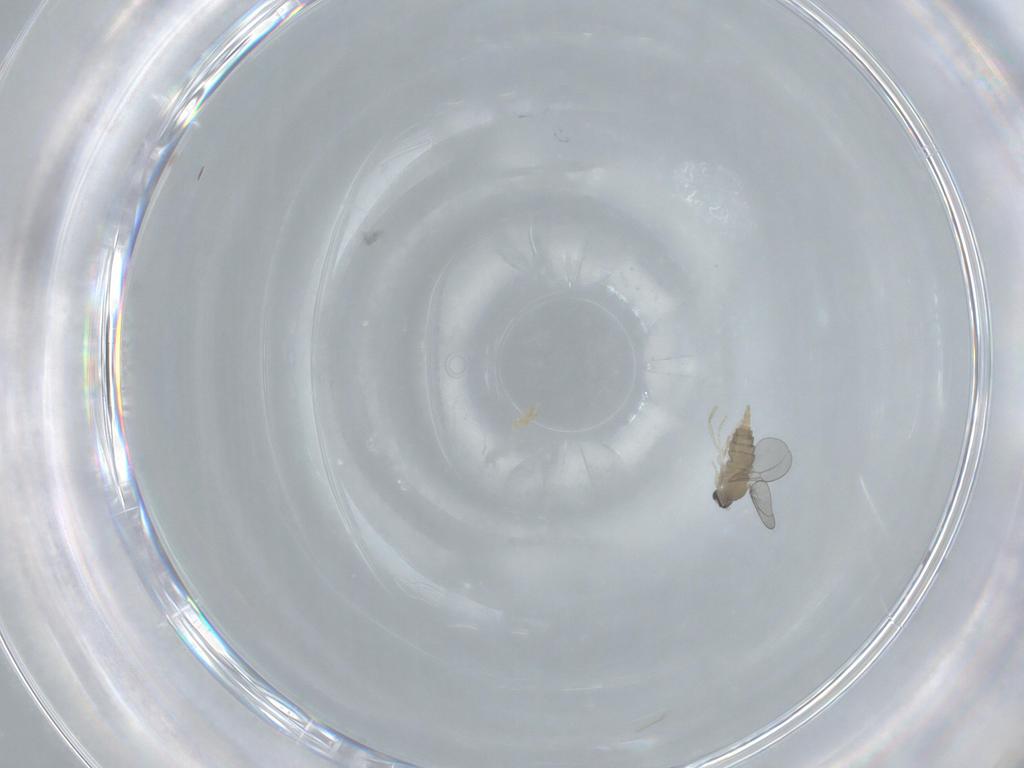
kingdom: Animalia
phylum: Arthropoda
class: Insecta
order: Diptera
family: Cecidomyiidae
